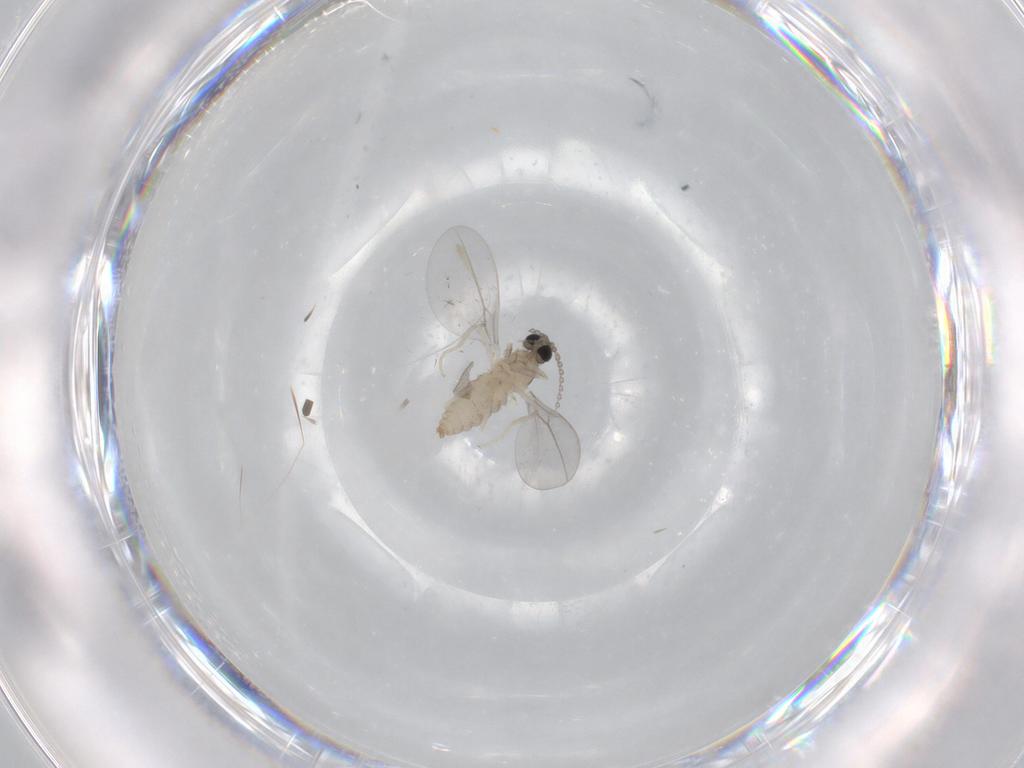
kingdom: Animalia
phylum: Arthropoda
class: Insecta
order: Diptera
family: Cecidomyiidae
